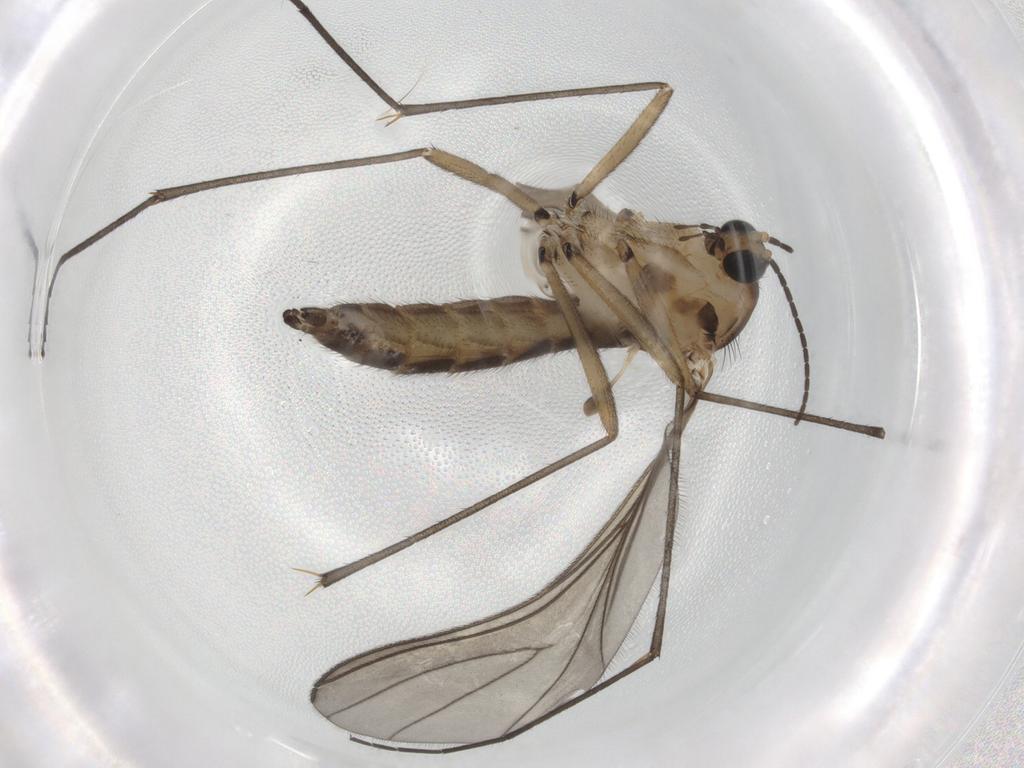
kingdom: Animalia
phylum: Arthropoda
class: Insecta
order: Diptera
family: Sciaridae
